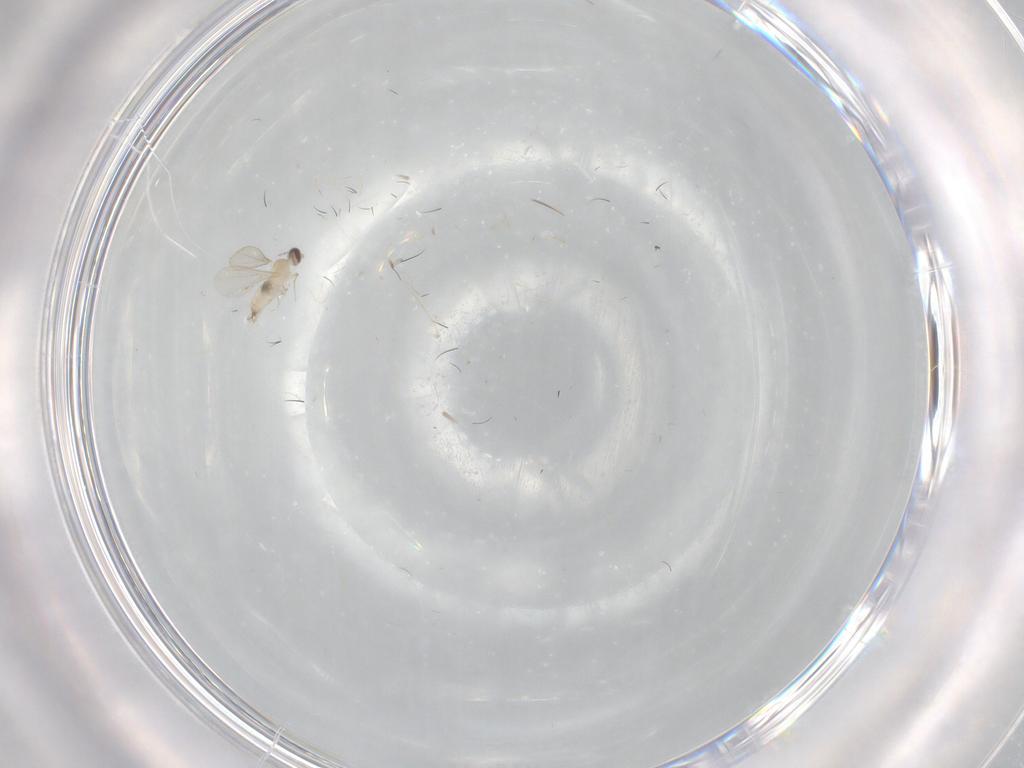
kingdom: Animalia
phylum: Arthropoda
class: Insecta
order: Diptera
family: Cecidomyiidae
